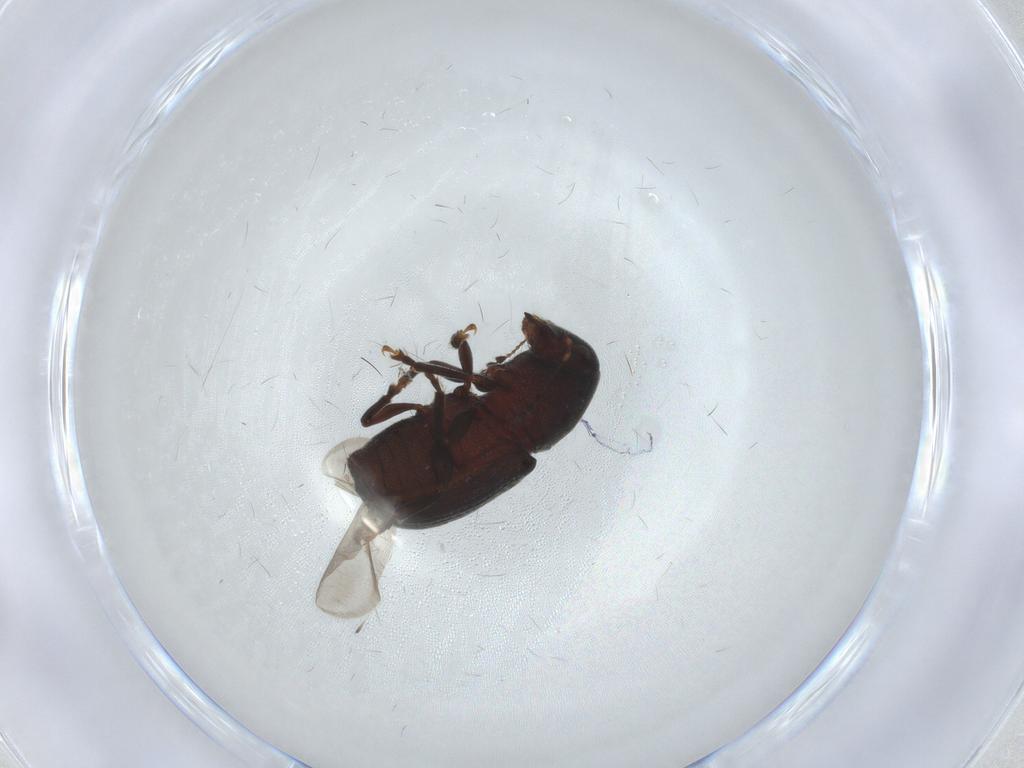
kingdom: Animalia
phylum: Arthropoda
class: Insecta
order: Coleoptera
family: Anthribidae
